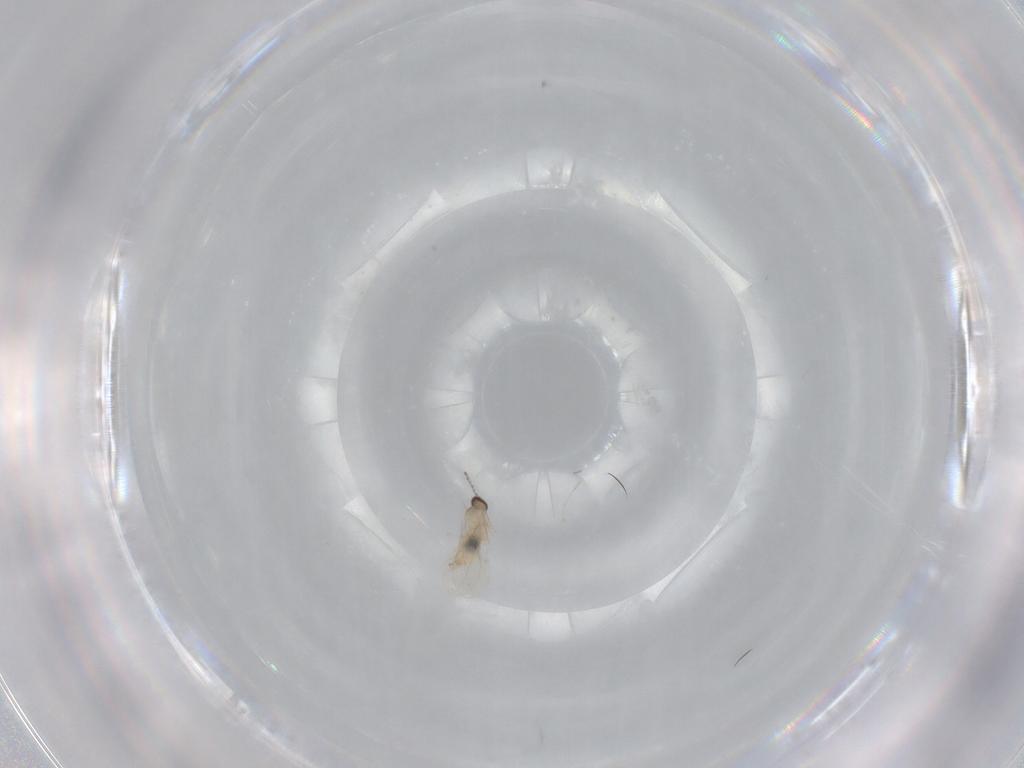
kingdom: Animalia
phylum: Arthropoda
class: Insecta
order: Diptera
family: Cecidomyiidae
